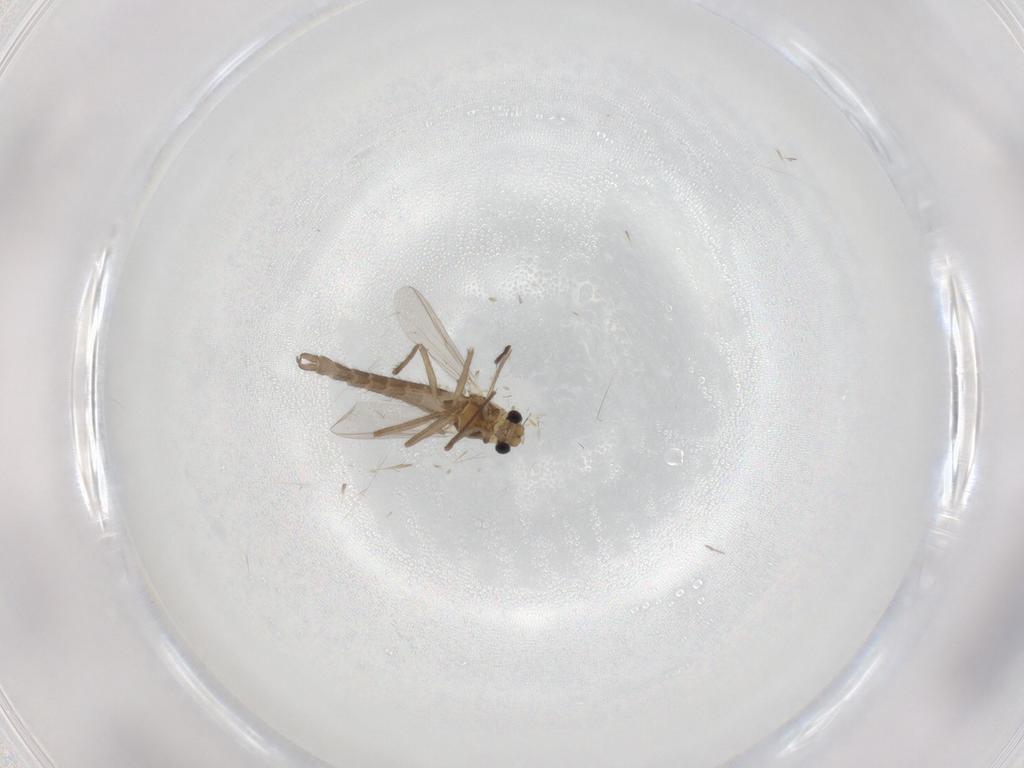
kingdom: Animalia
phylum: Arthropoda
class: Insecta
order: Diptera
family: Chironomidae
